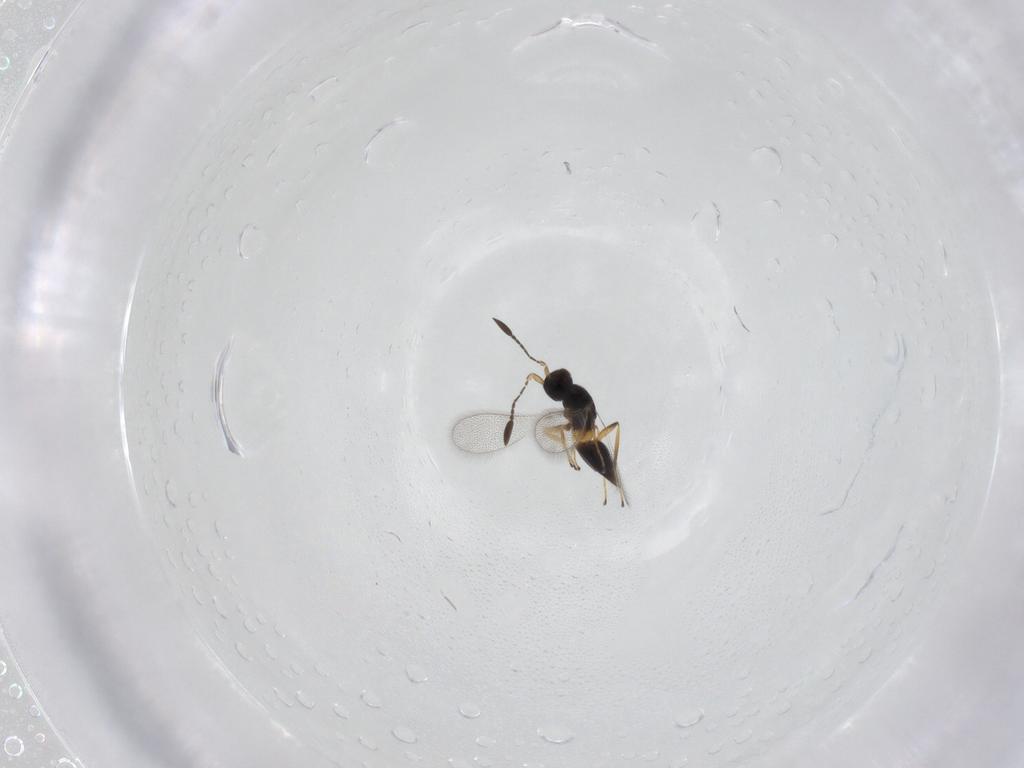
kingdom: Animalia
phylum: Arthropoda
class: Insecta
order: Hymenoptera
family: Mymaridae
